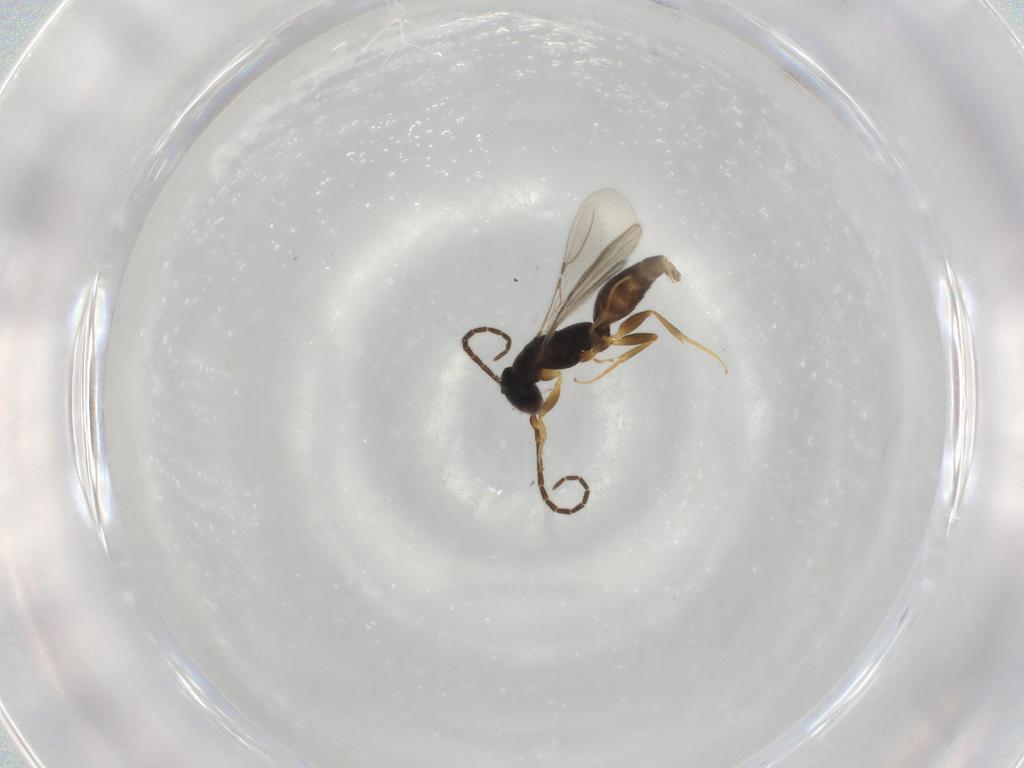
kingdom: Animalia
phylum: Arthropoda
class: Insecta
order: Hymenoptera
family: Bethylidae
